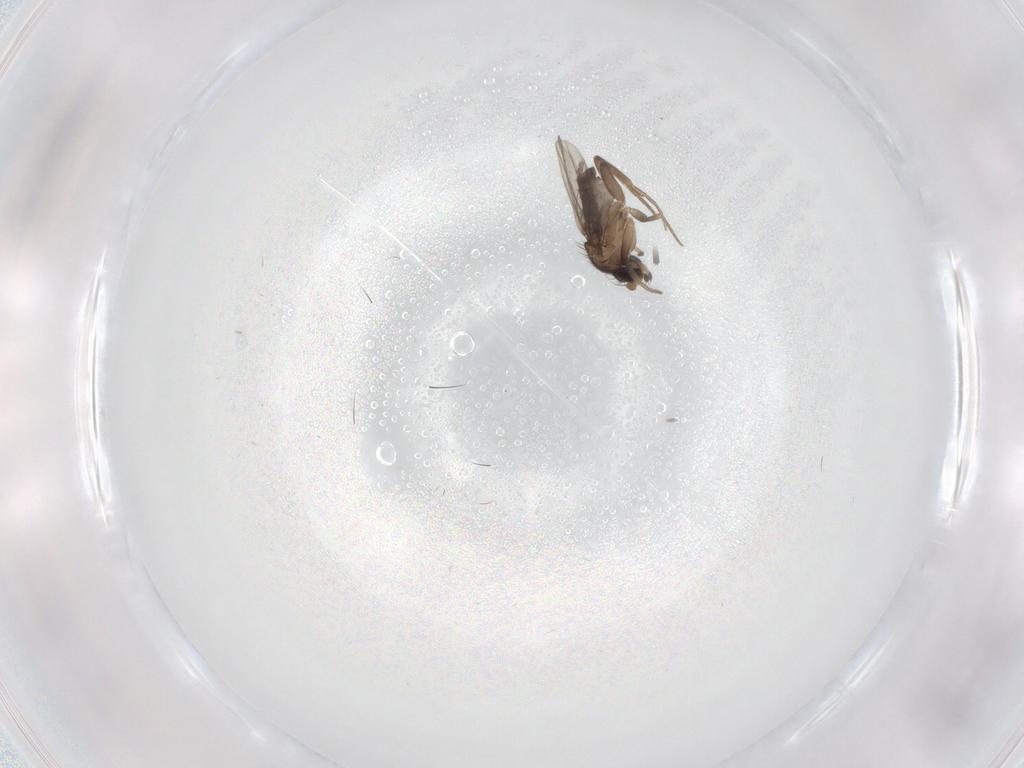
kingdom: Animalia
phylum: Arthropoda
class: Insecta
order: Diptera
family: Phoridae
